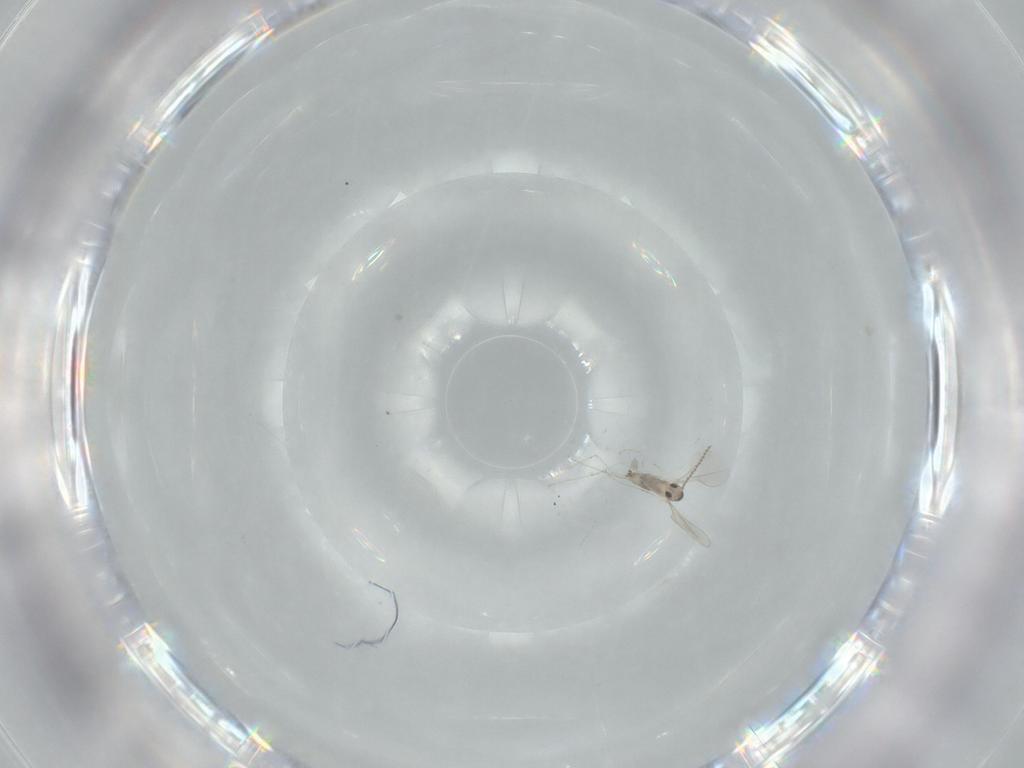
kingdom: Animalia
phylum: Arthropoda
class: Insecta
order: Diptera
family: Cecidomyiidae
